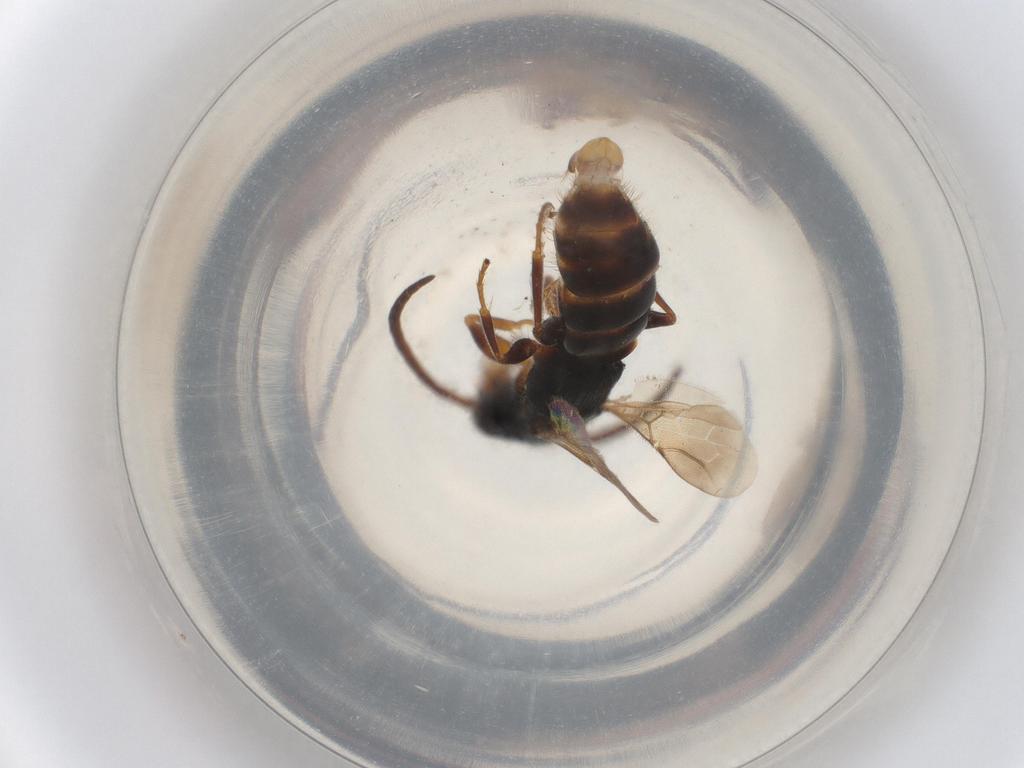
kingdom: Animalia
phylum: Arthropoda
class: Insecta
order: Hymenoptera
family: Bethylidae
